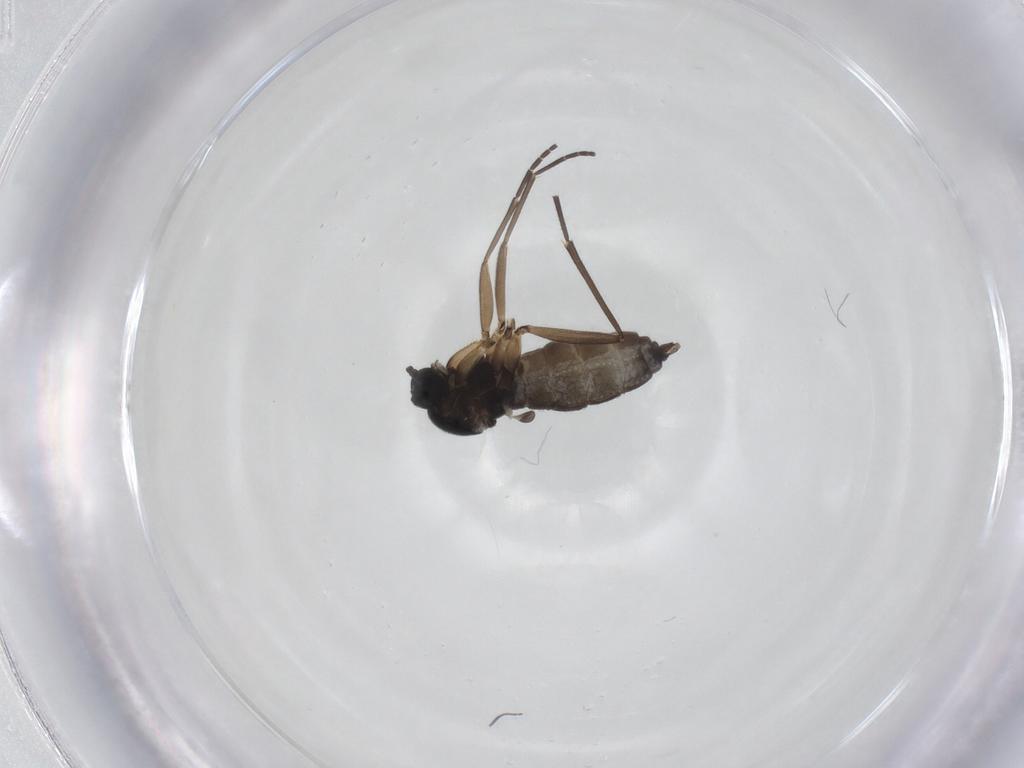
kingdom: Animalia
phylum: Arthropoda
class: Insecta
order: Diptera
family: Sciaridae
